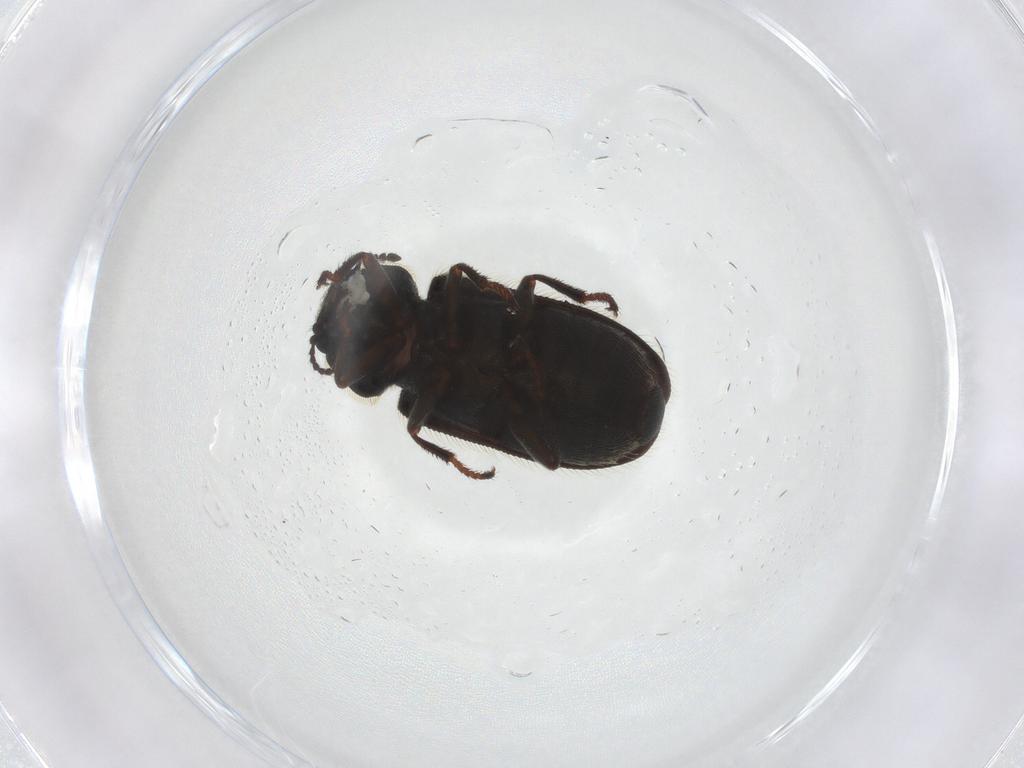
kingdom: Animalia
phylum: Arthropoda
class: Insecta
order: Coleoptera
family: Dasytidae
